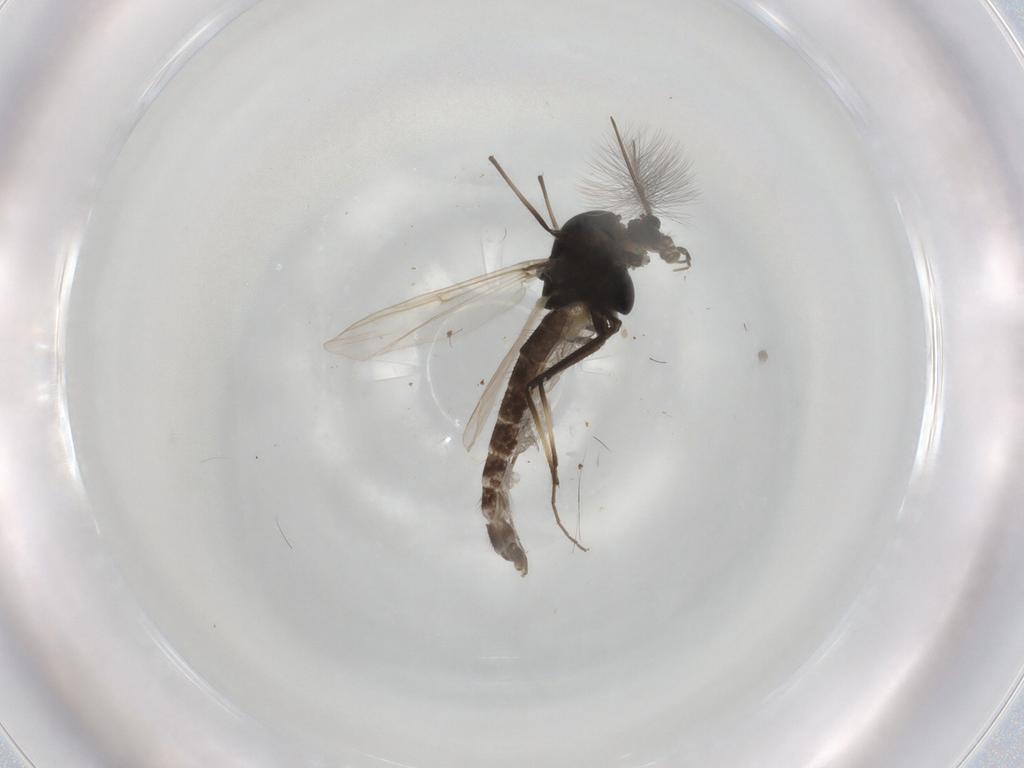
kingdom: Animalia
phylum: Arthropoda
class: Insecta
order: Diptera
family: Chironomidae
